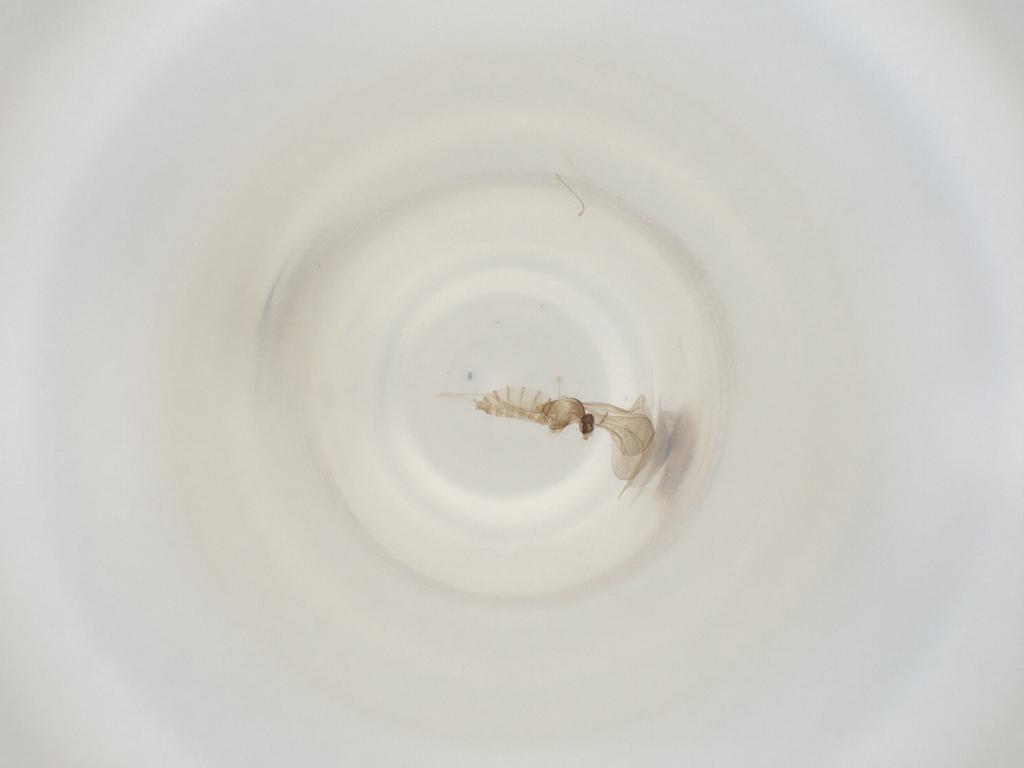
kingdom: Animalia
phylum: Arthropoda
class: Insecta
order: Diptera
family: Cecidomyiidae
